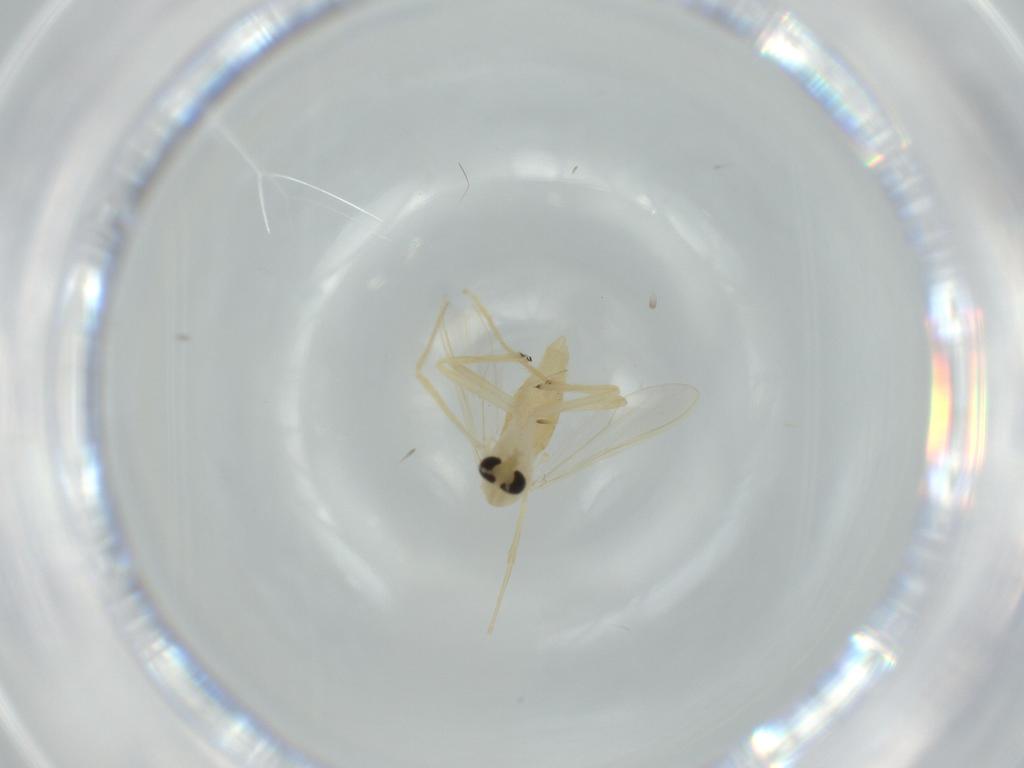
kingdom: Animalia
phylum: Arthropoda
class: Insecta
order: Diptera
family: Chironomidae
